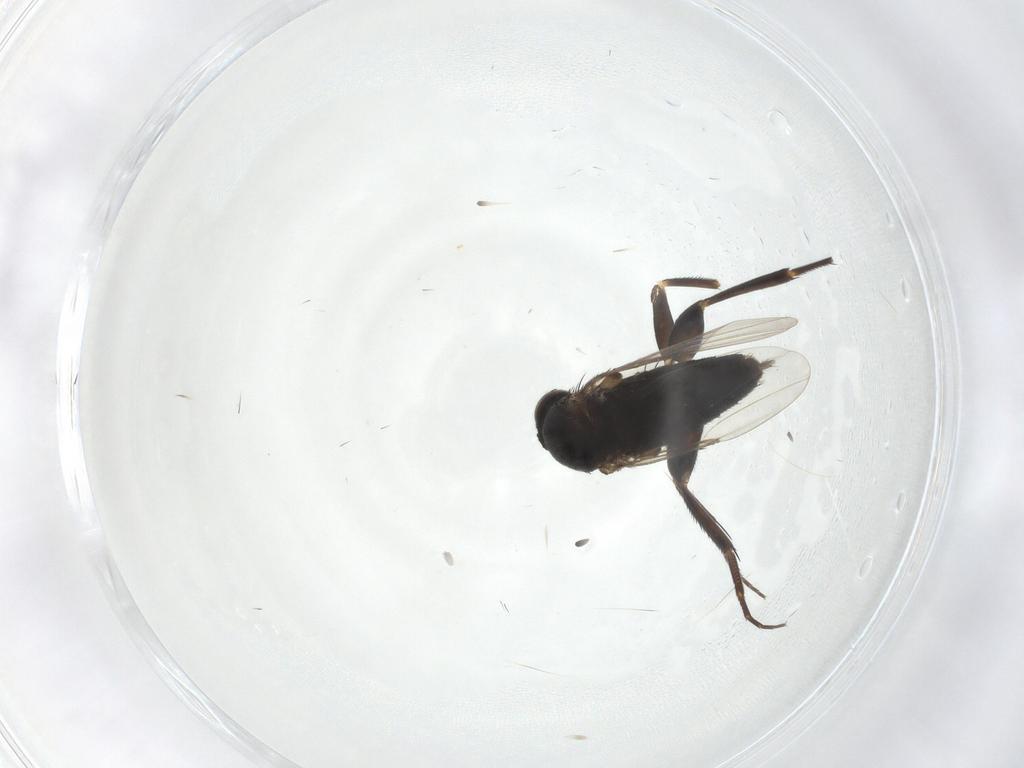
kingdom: Animalia
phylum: Arthropoda
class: Insecta
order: Diptera
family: Phoridae
